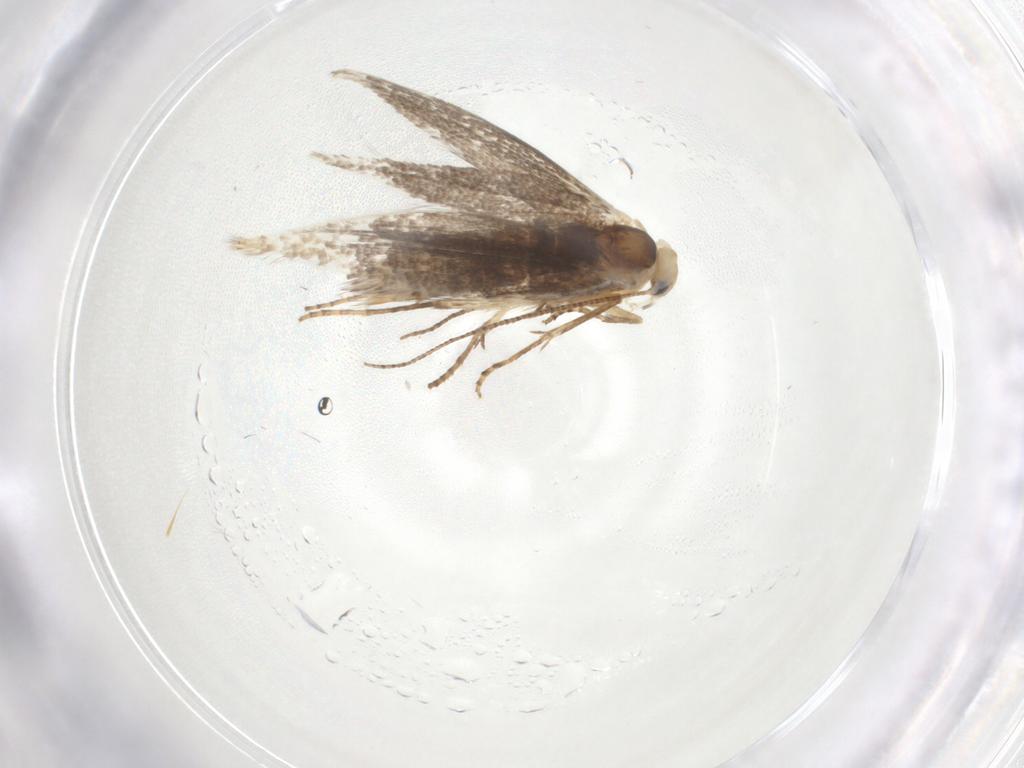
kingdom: Animalia
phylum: Arthropoda
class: Insecta
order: Lepidoptera
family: Bucculatricidae
